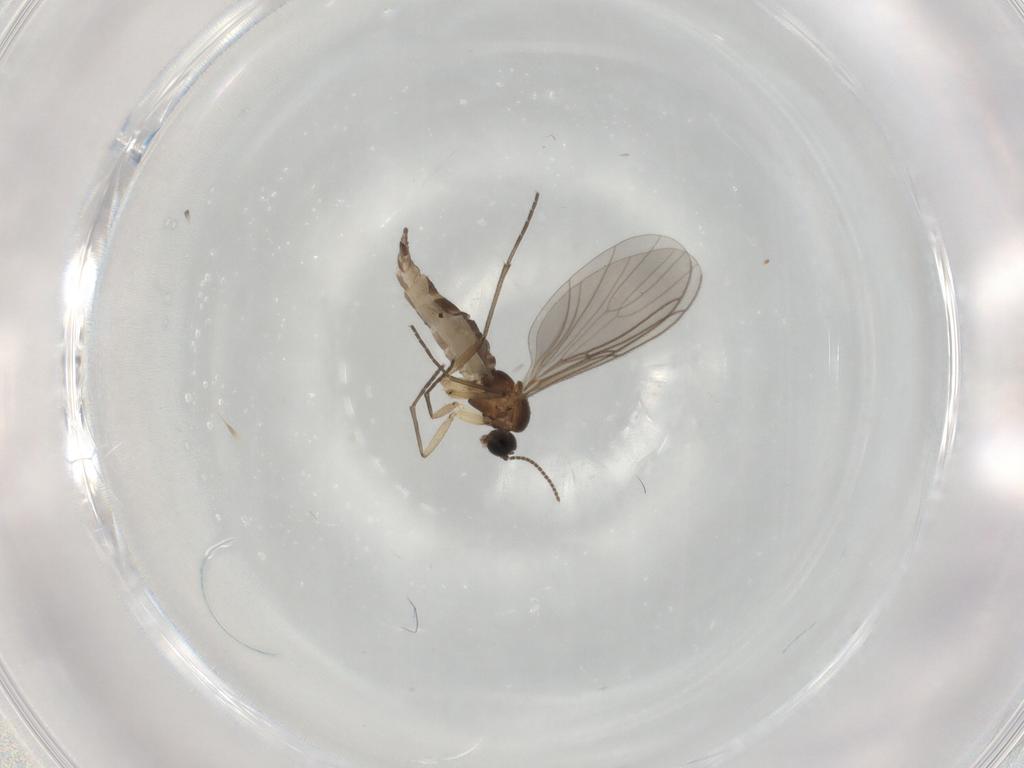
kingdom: Animalia
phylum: Arthropoda
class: Insecta
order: Diptera
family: Sciaridae
